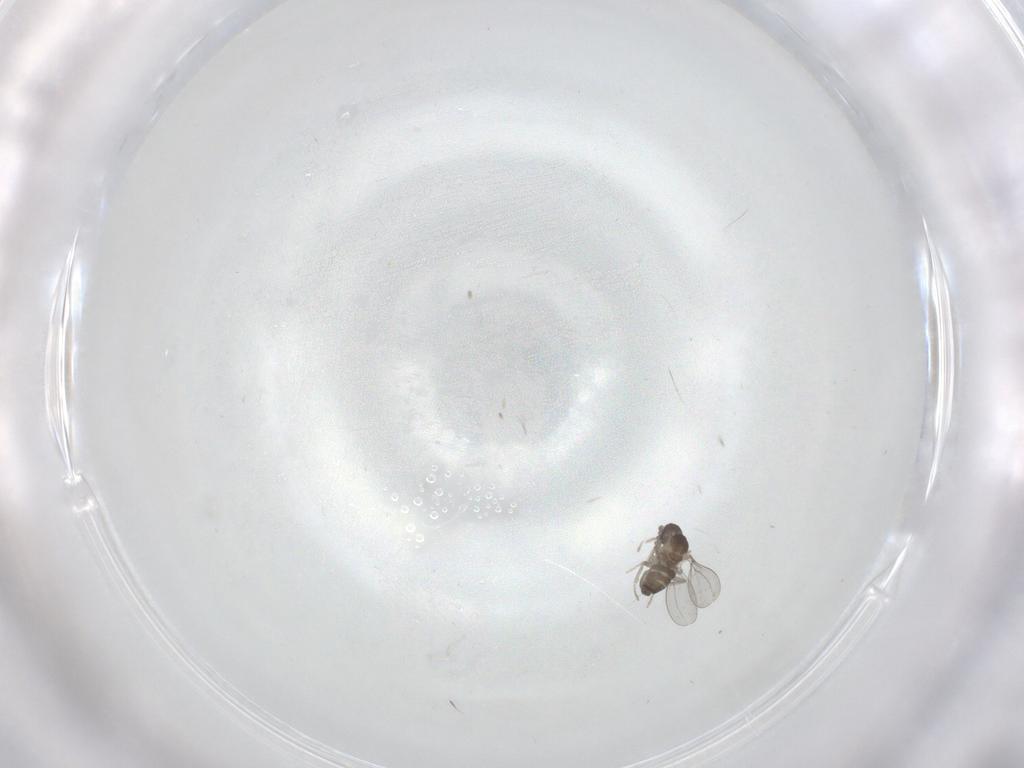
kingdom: Animalia
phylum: Arthropoda
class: Insecta
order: Diptera
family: Cecidomyiidae
